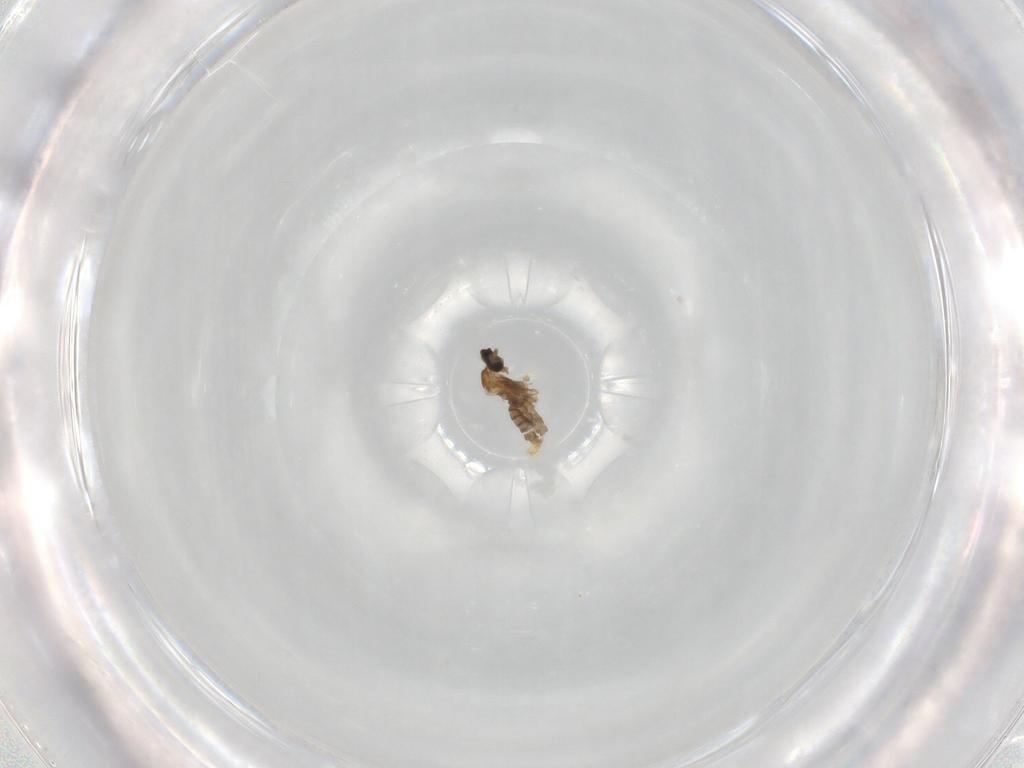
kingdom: Animalia
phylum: Arthropoda
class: Insecta
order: Diptera
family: Cecidomyiidae
